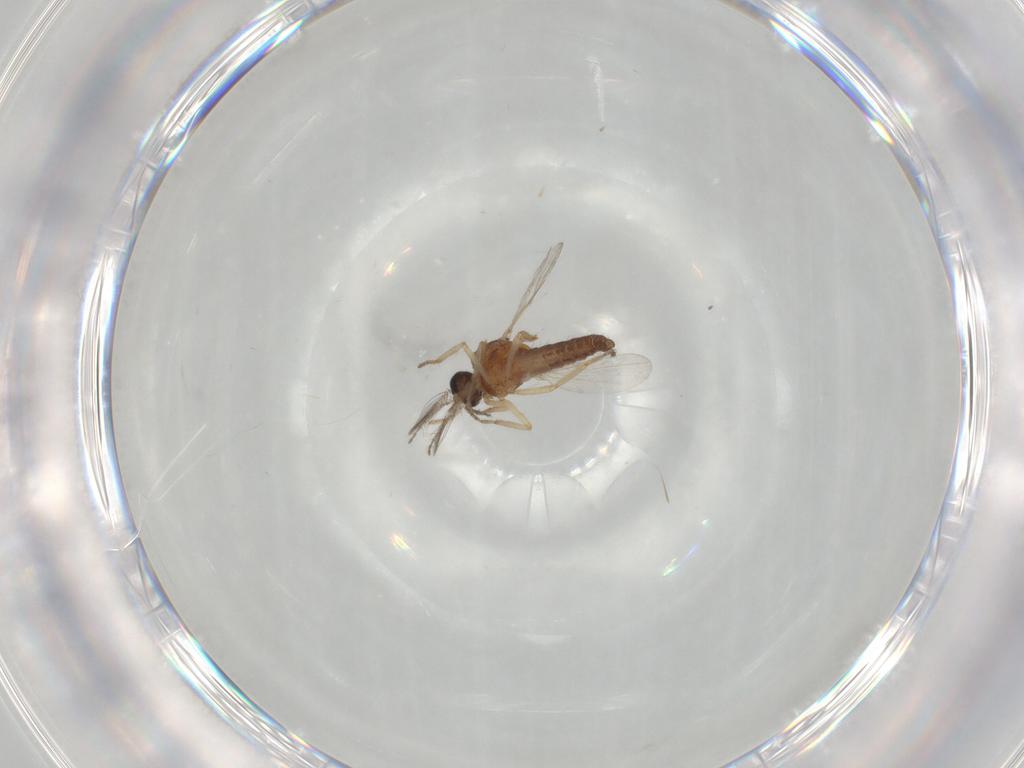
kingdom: Animalia
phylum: Arthropoda
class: Insecta
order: Diptera
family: Ceratopogonidae
